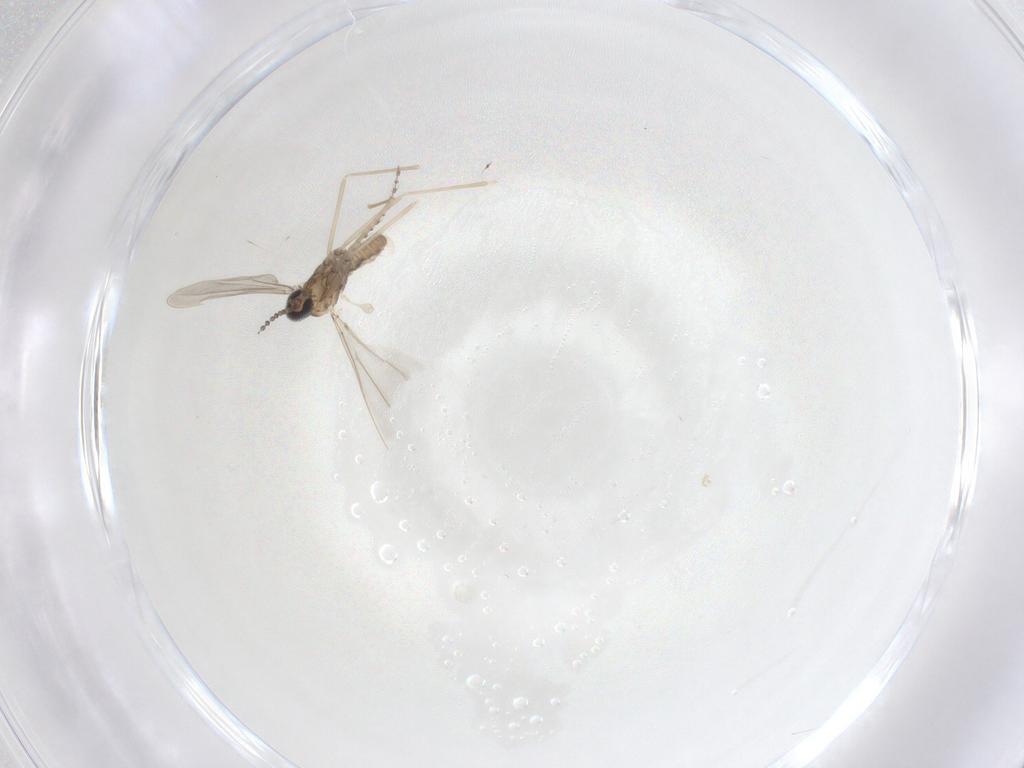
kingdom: Animalia
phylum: Arthropoda
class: Insecta
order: Diptera
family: Cecidomyiidae
